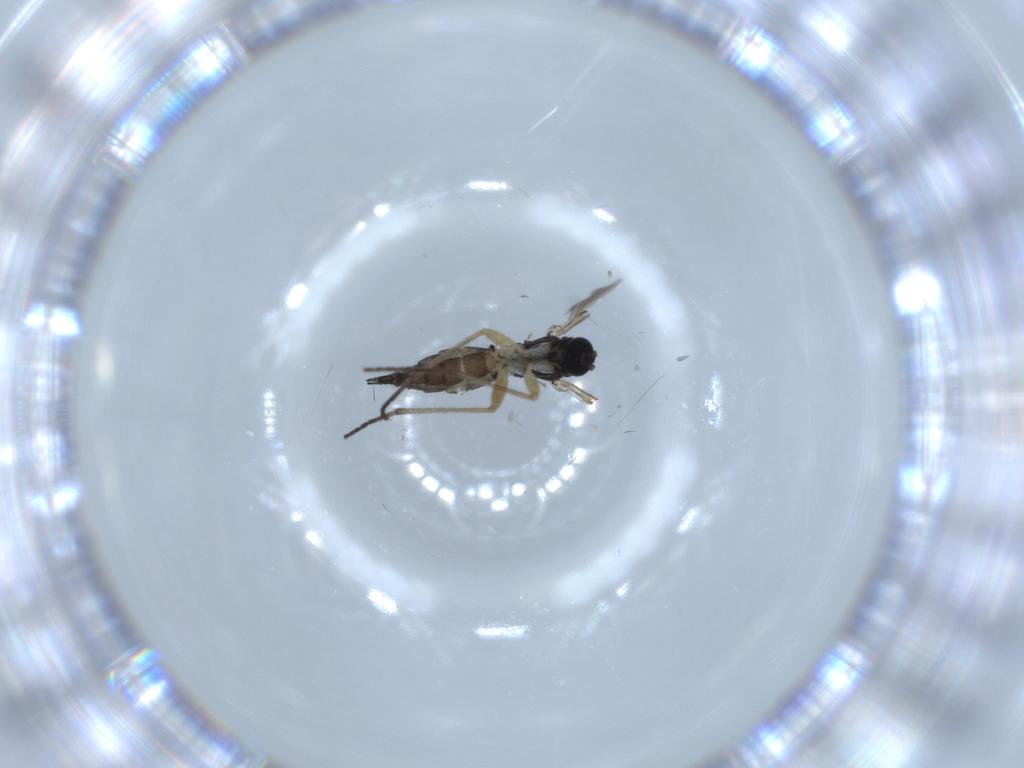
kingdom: Animalia
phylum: Arthropoda
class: Insecta
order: Diptera
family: Sciaridae
